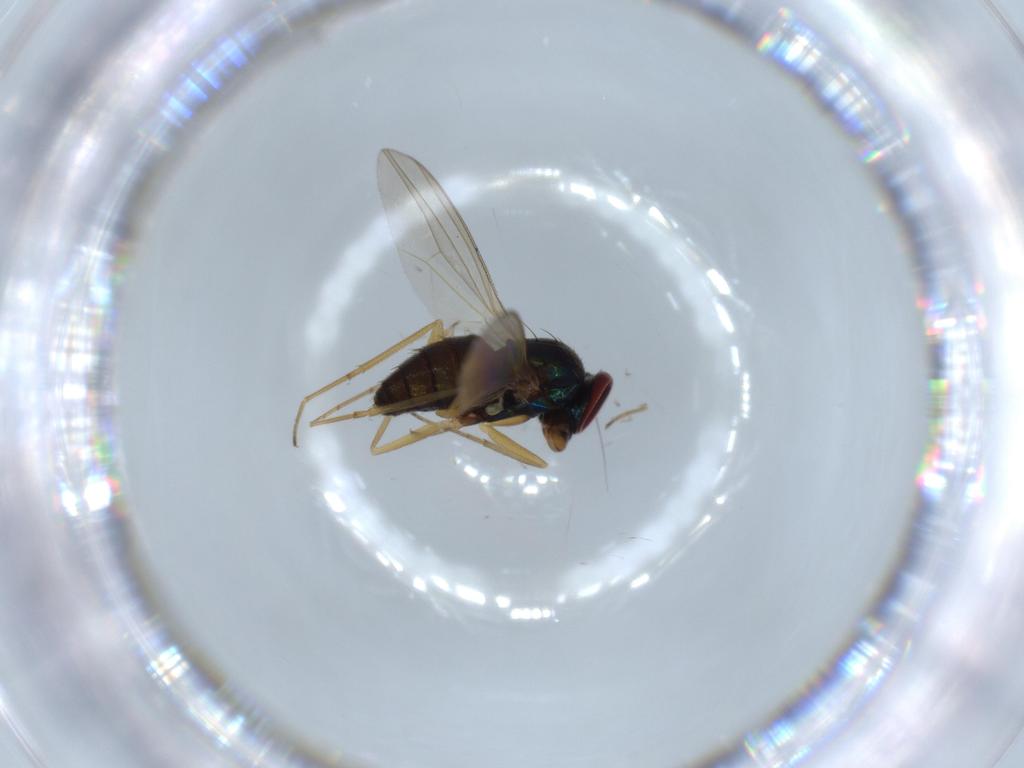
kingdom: Animalia
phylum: Arthropoda
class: Insecta
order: Diptera
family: Dolichopodidae
